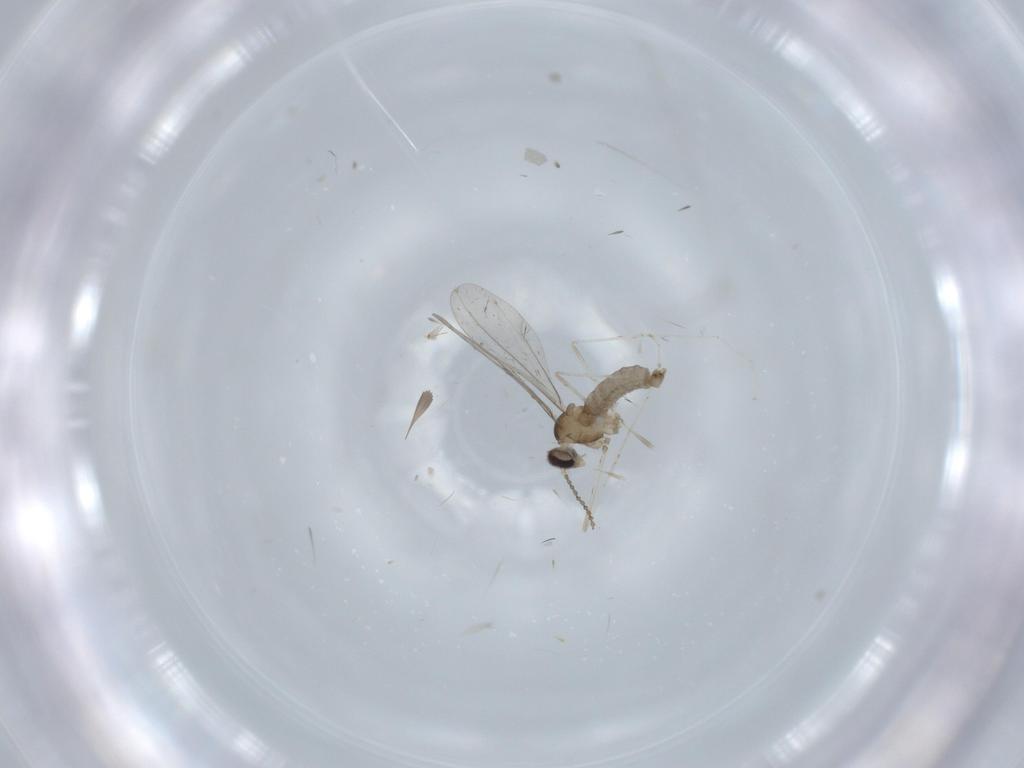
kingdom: Animalia
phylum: Arthropoda
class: Insecta
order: Diptera
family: Cecidomyiidae
